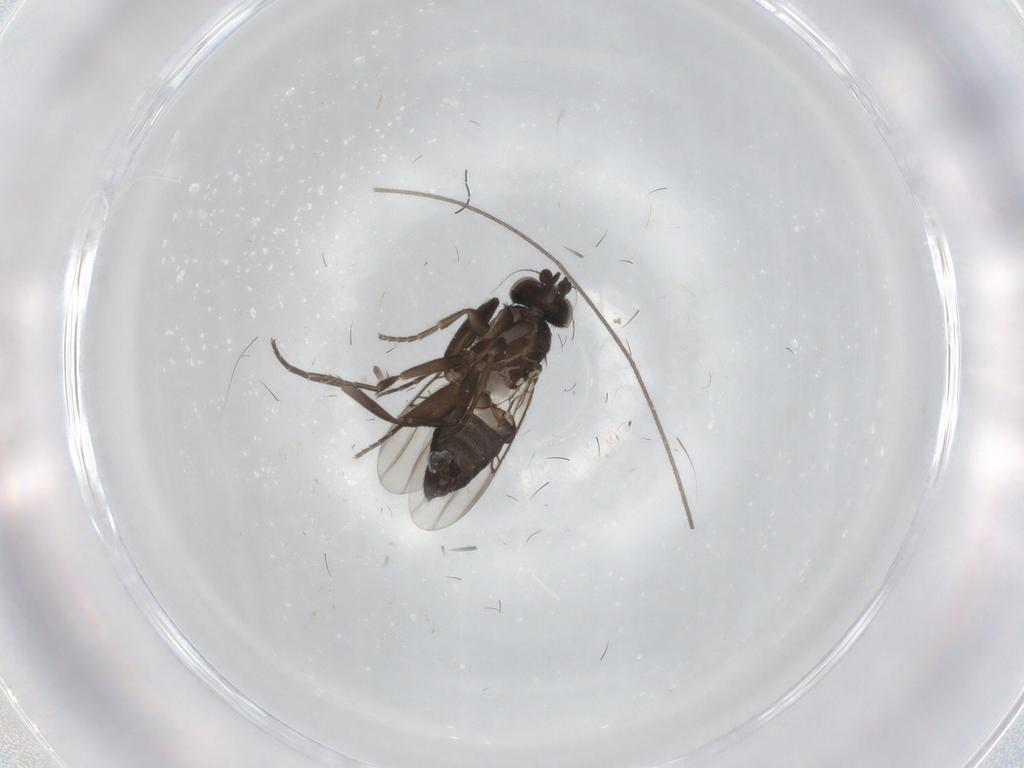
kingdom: Animalia
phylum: Arthropoda
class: Insecta
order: Diptera
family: Phoridae
